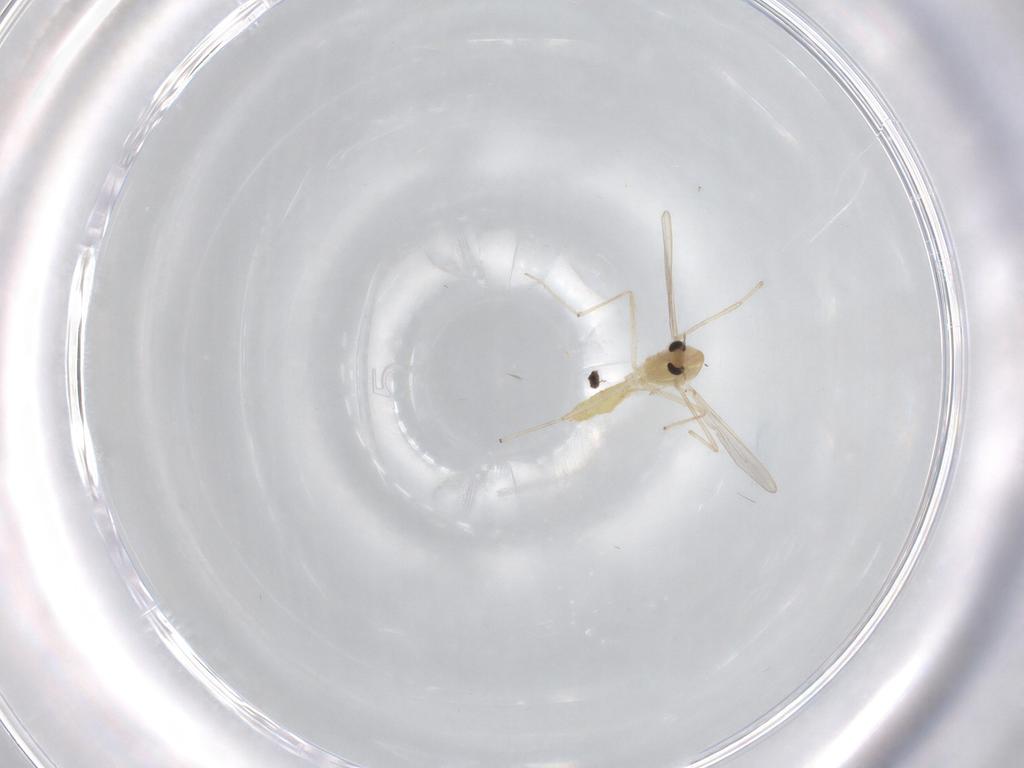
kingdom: Animalia
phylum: Arthropoda
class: Insecta
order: Diptera
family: Chironomidae
